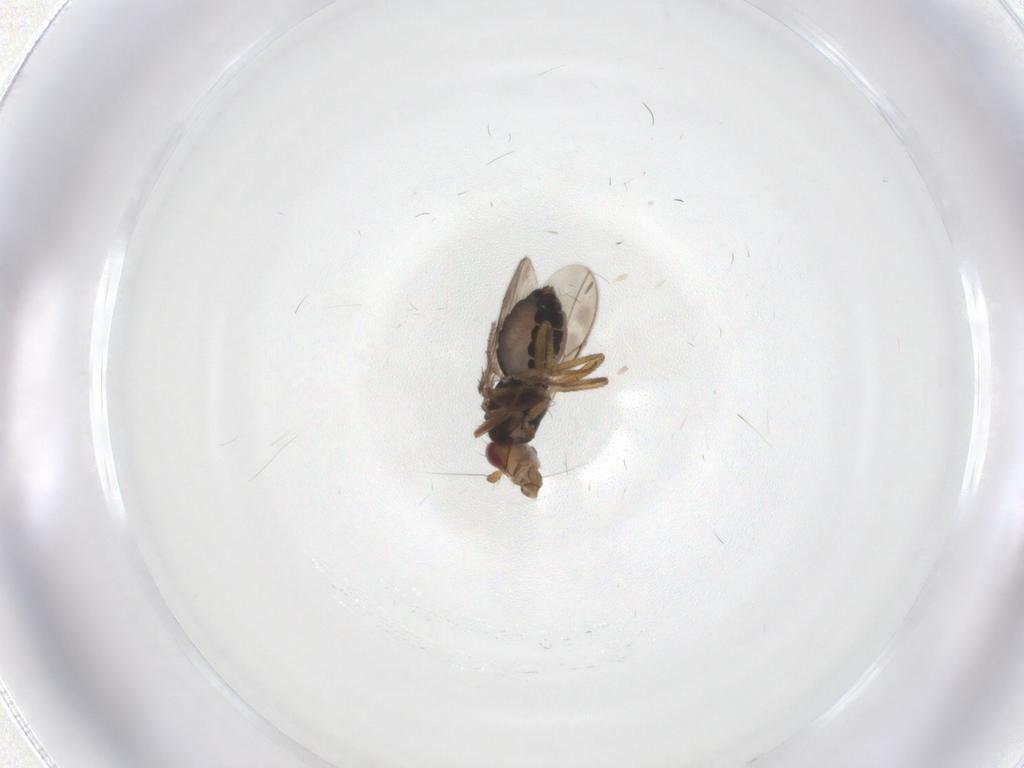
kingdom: Animalia
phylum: Arthropoda
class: Insecta
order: Diptera
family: Sphaeroceridae
